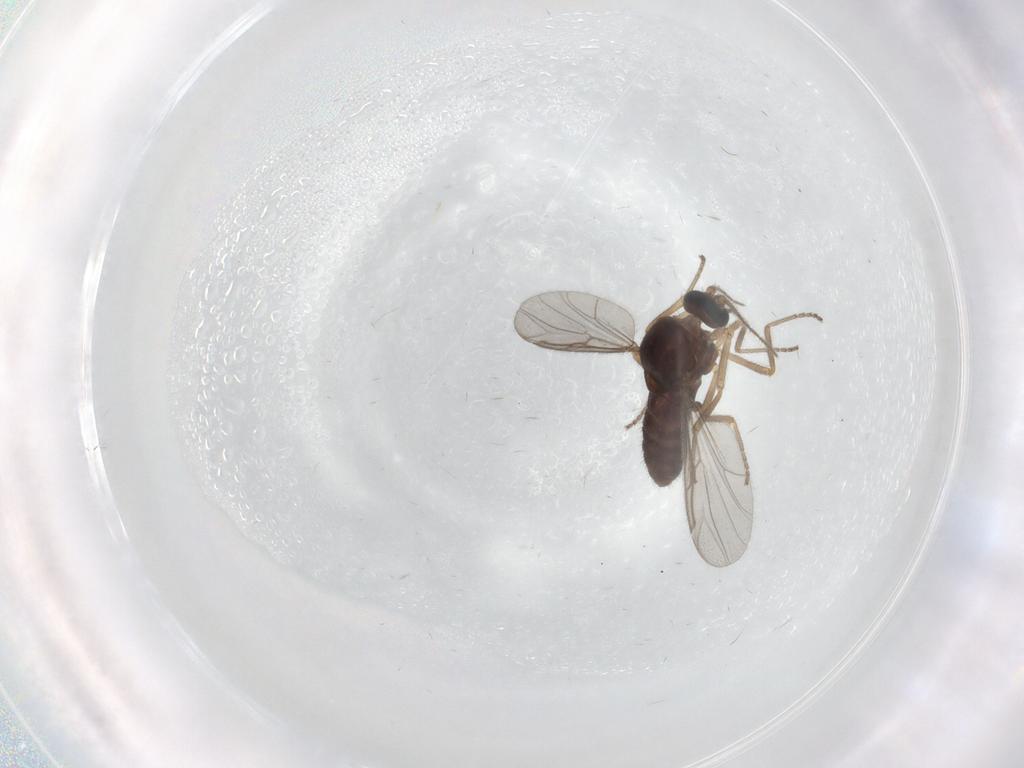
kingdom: Animalia
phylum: Arthropoda
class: Insecta
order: Diptera
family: Ceratopogonidae
